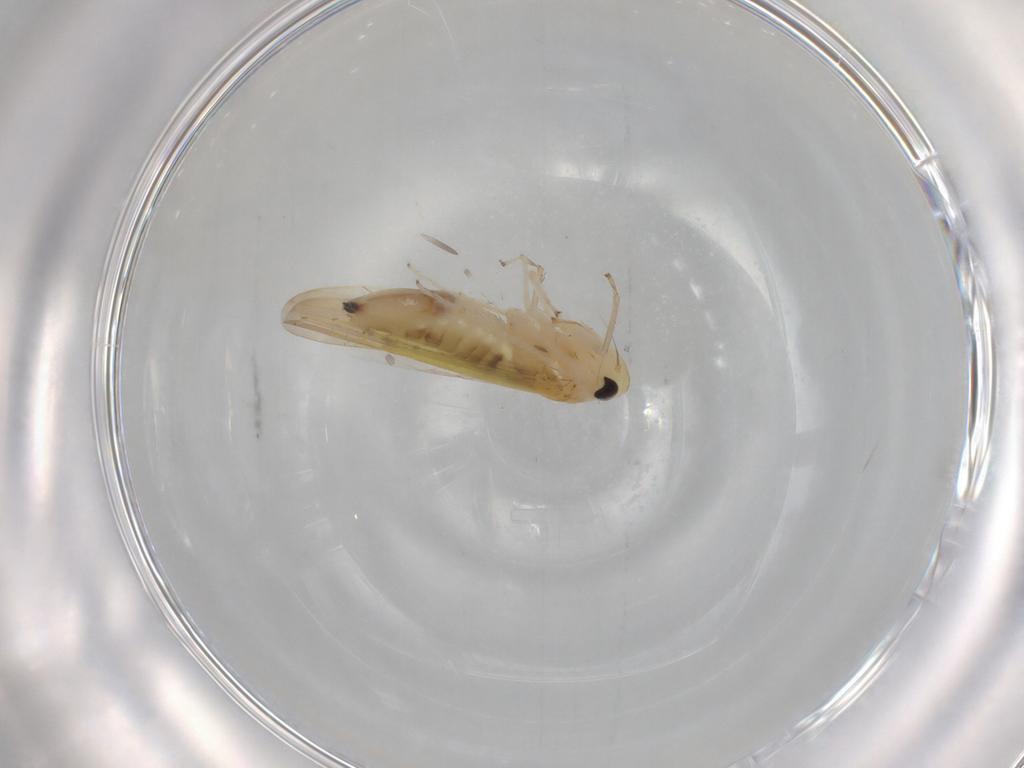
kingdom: Animalia
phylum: Arthropoda
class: Insecta
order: Hemiptera
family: Cicadellidae
